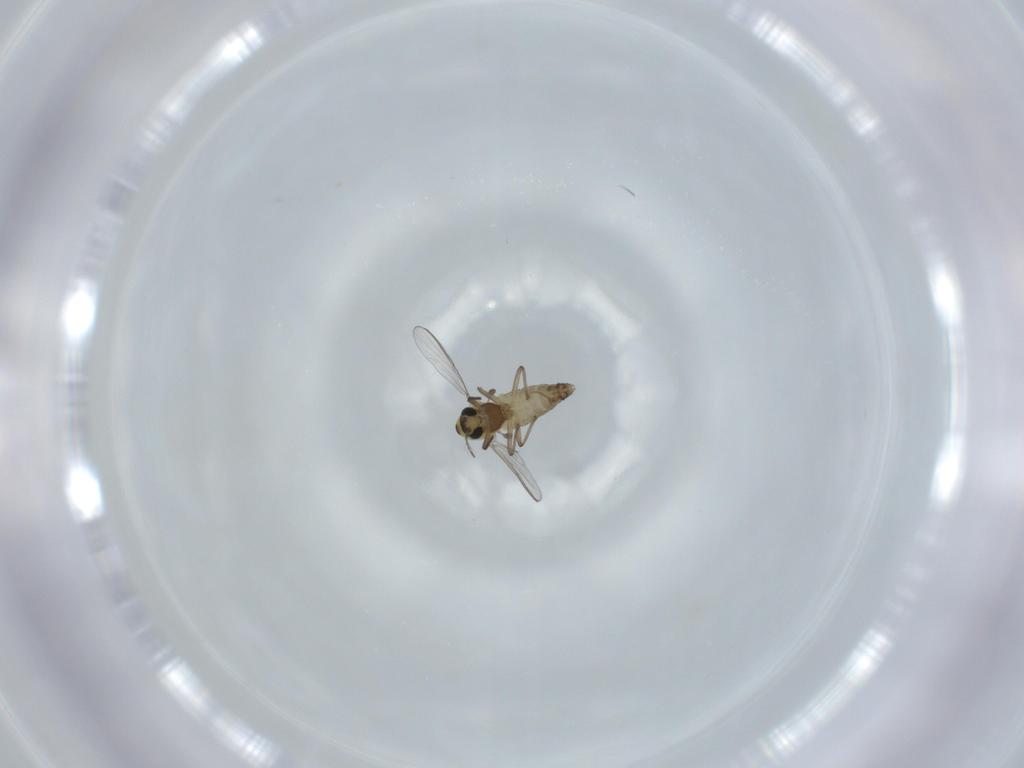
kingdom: Animalia
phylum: Arthropoda
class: Insecta
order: Diptera
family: Chironomidae
